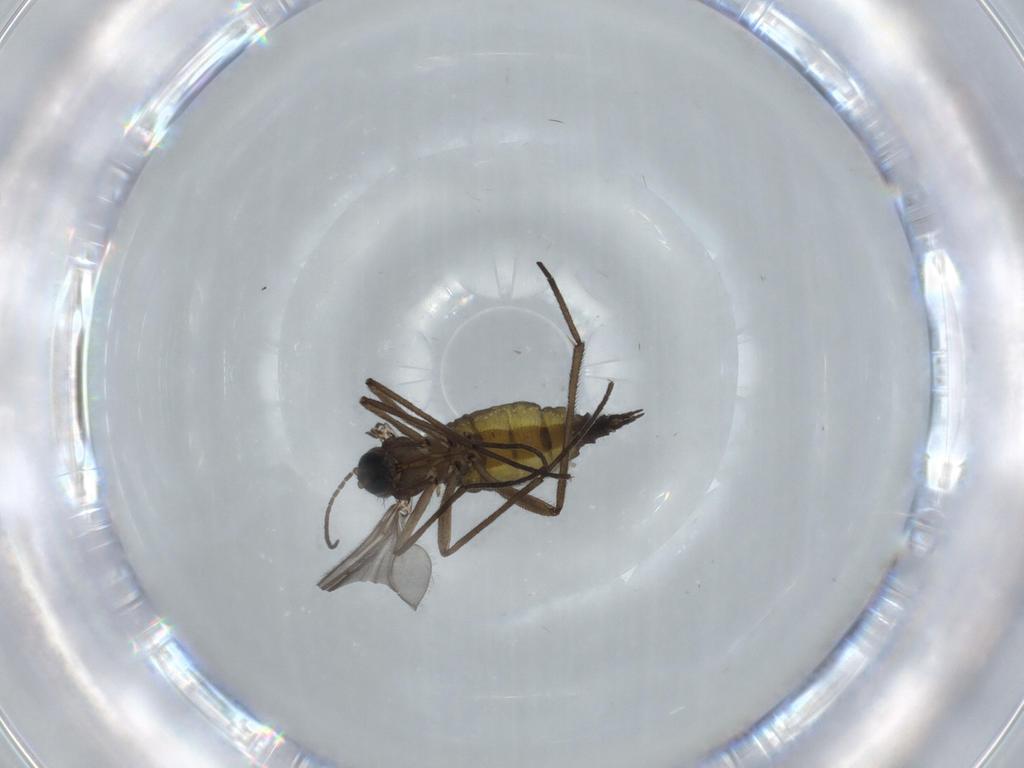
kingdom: Animalia
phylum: Arthropoda
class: Insecta
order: Diptera
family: Sciaridae
